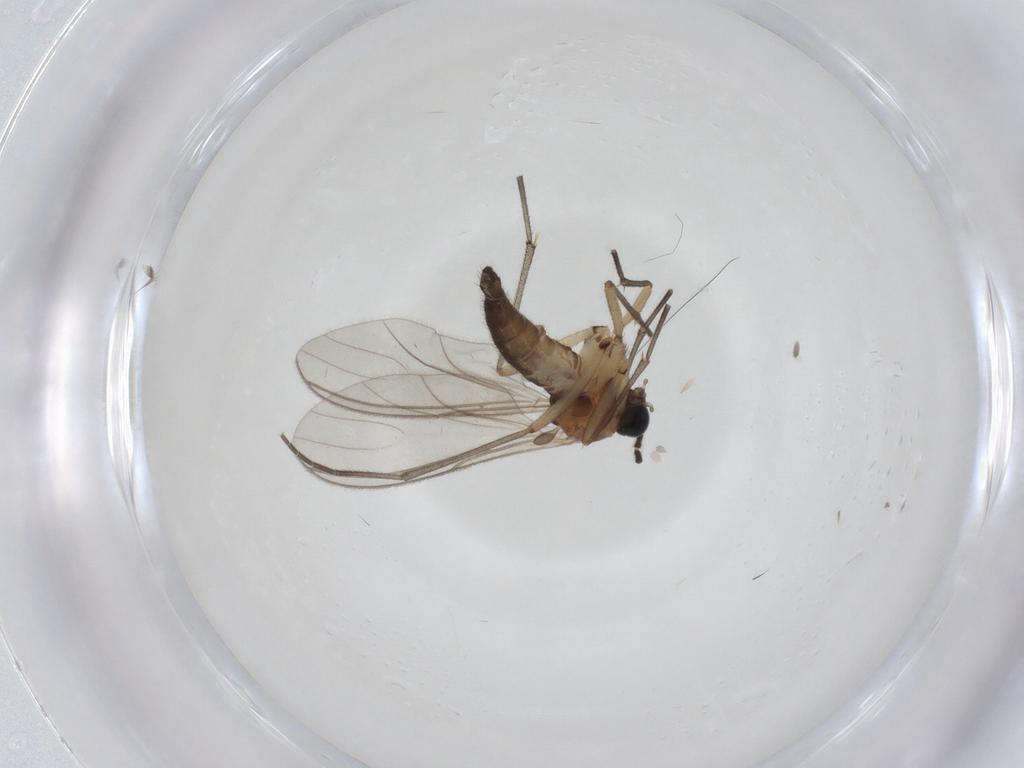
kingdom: Animalia
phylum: Arthropoda
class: Insecta
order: Diptera
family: Sciaridae
